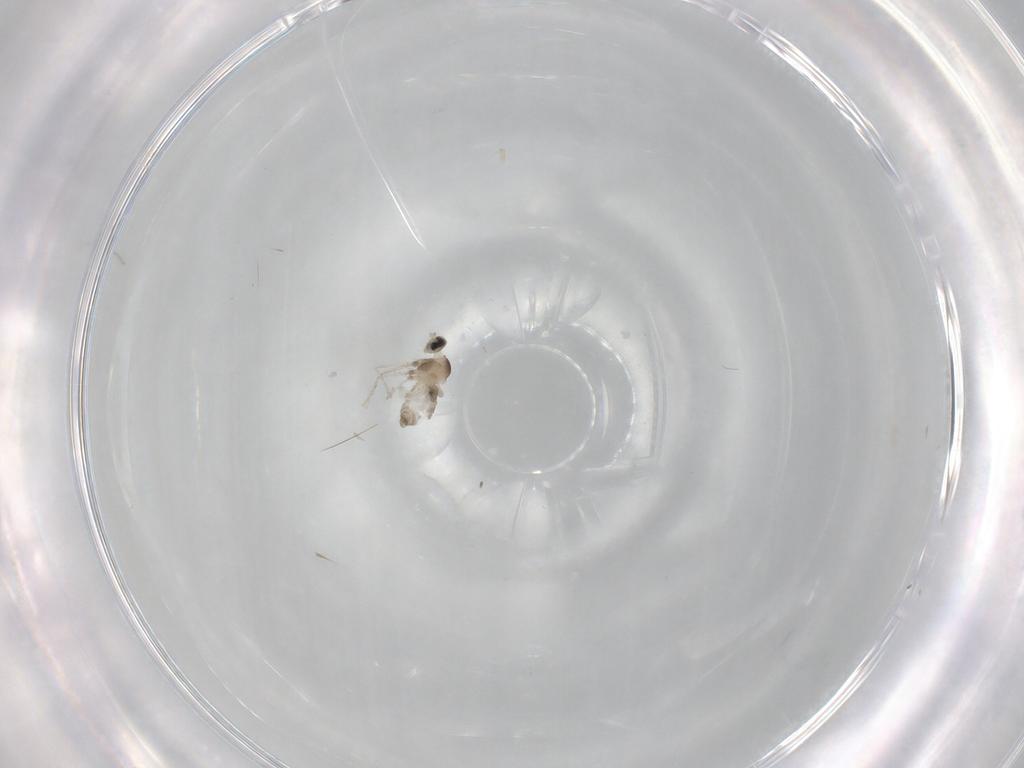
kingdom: Animalia
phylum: Arthropoda
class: Insecta
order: Diptera
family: Cecidomyiidae
